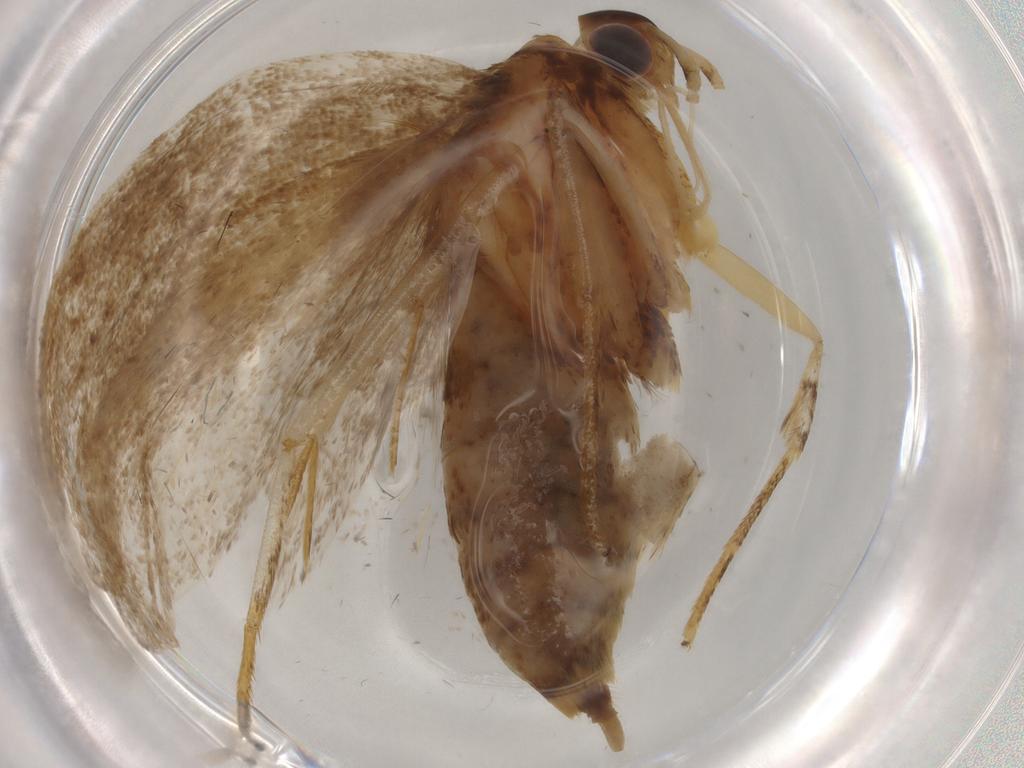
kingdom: Animalia
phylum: Arthropoda
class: Insecta
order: Lepidoptera
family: Lecithoceridae
